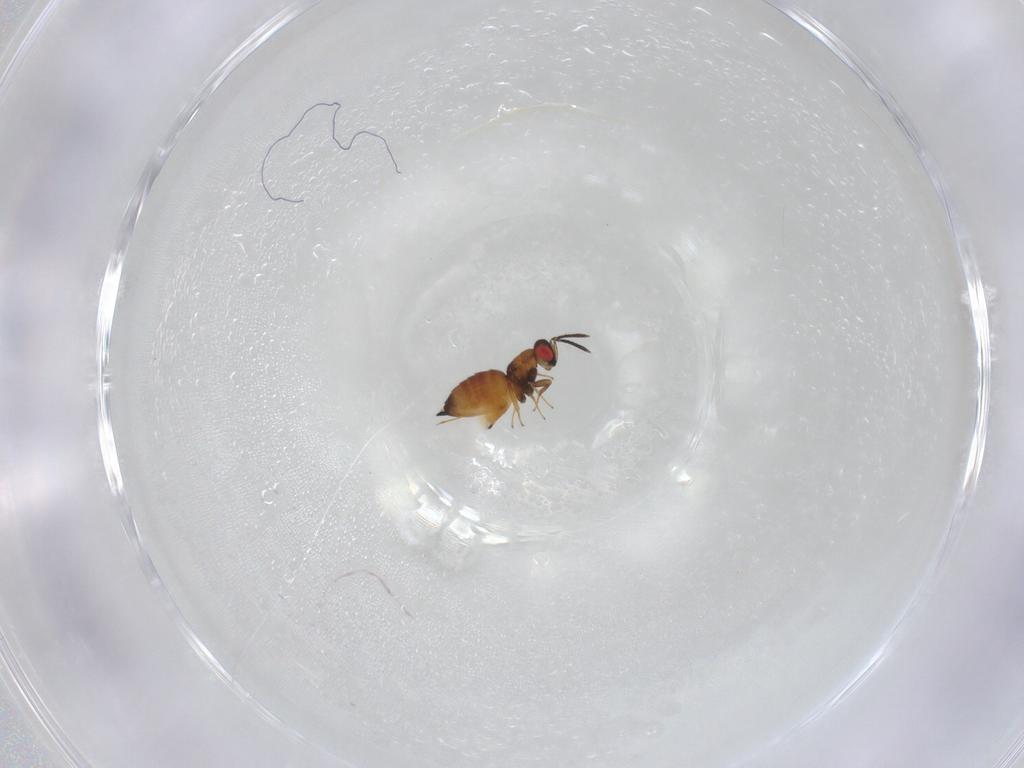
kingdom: Animalia
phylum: Arthropoda
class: Insecta
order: Hymenoptera
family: Pteromalidae
